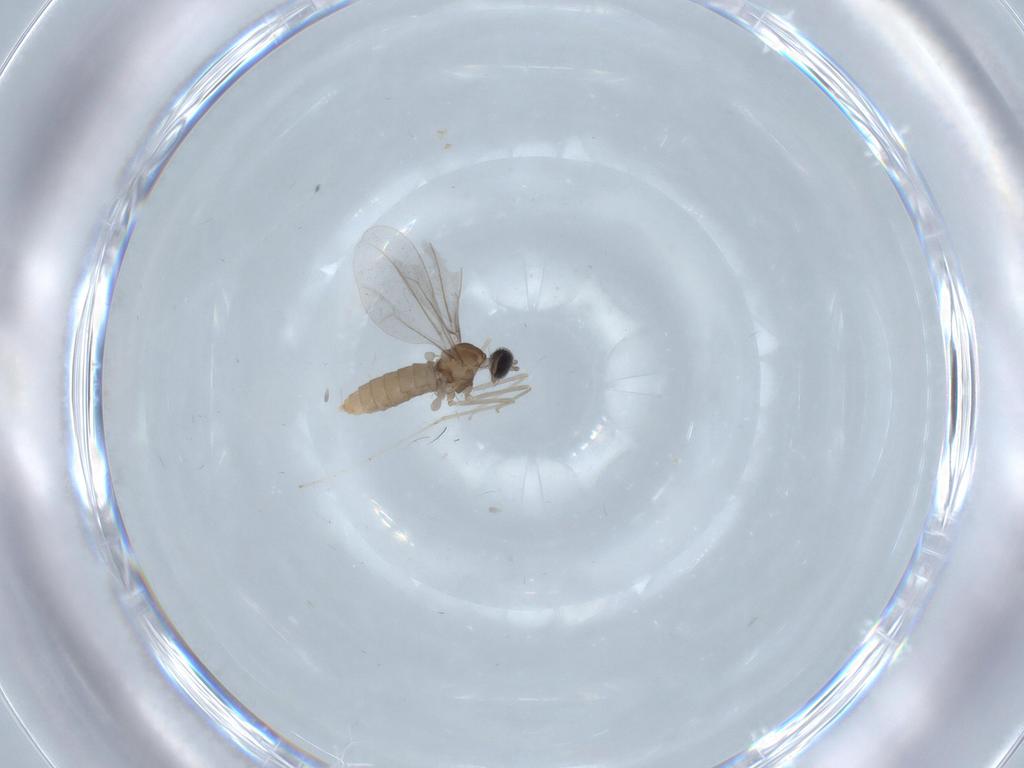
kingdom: Animalia
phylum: Arthropoda
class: Insecta
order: Diptera
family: Cecidomyiidae
